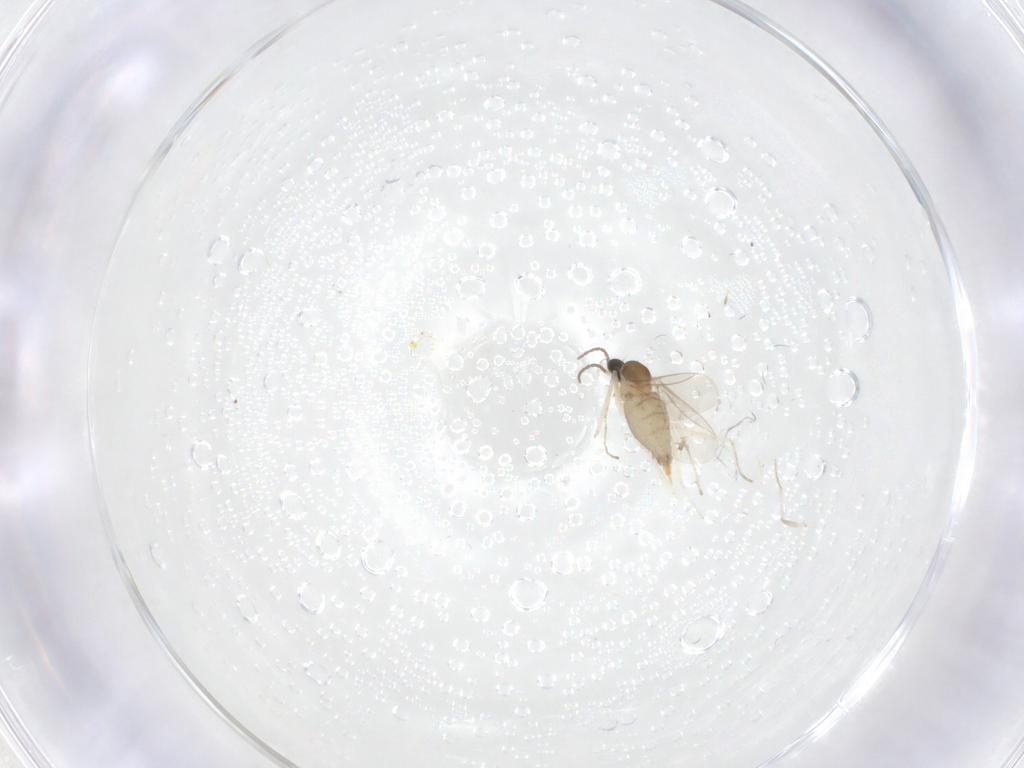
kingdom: Animalia
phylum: Arthropoda
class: Insecta
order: Diptera
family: Cecidomyiidae
